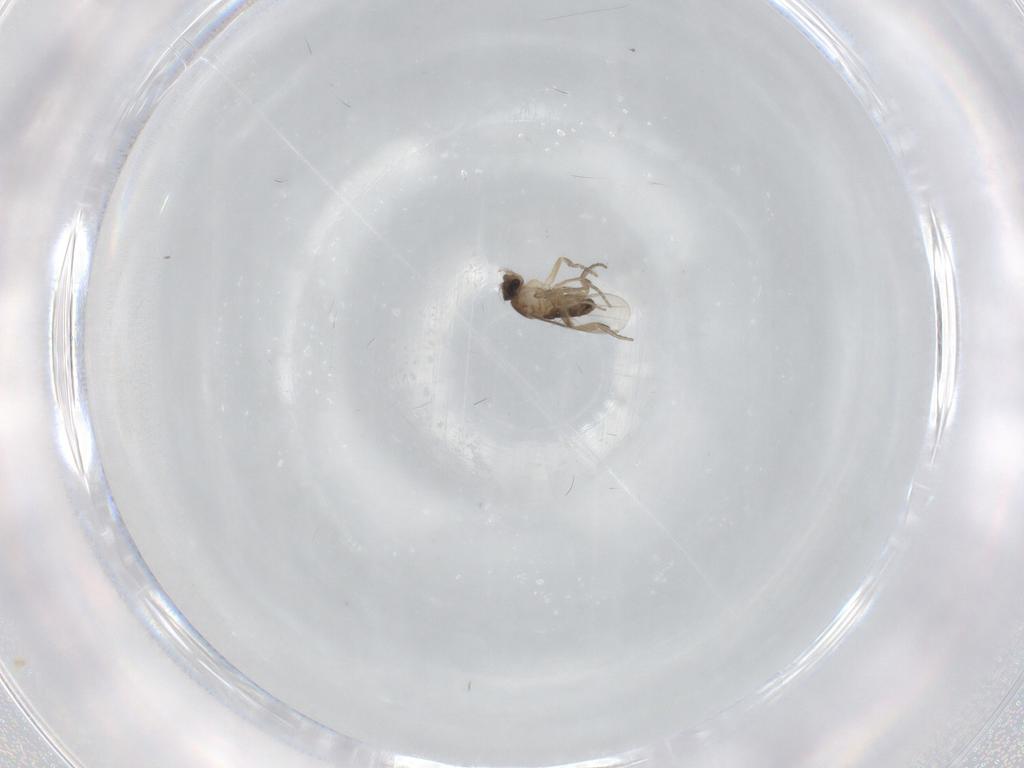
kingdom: Animalia
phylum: Arthropoda
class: Insecta
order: Diptera
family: Phoridae
